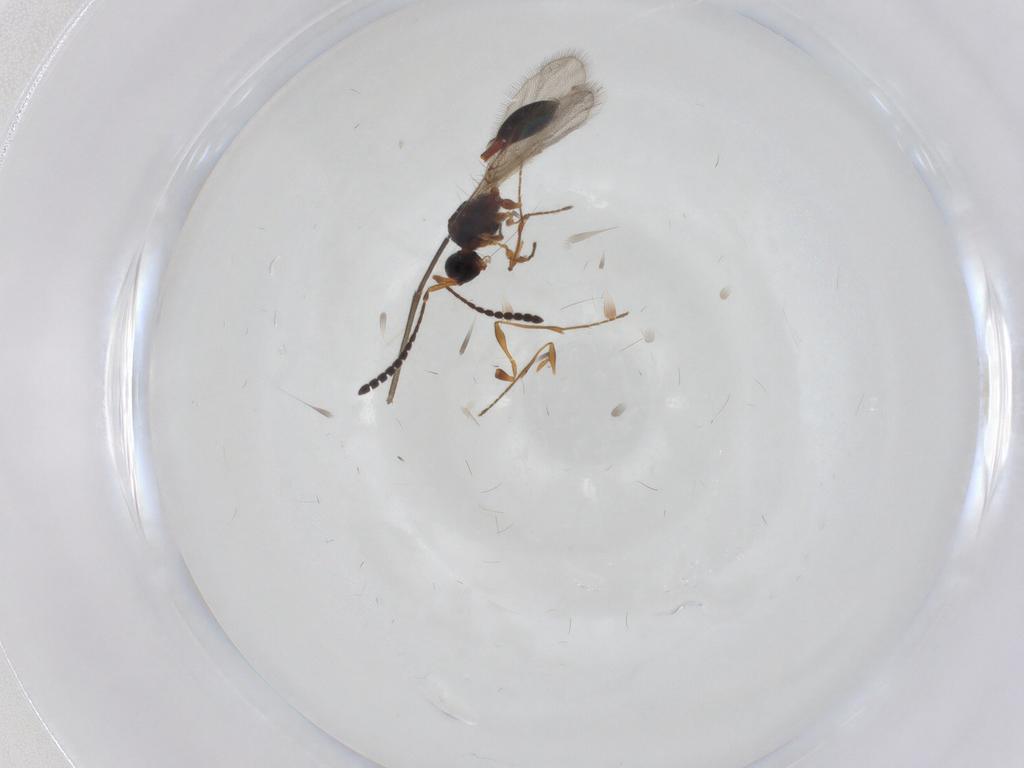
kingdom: Animalia
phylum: Arthropoda
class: Insecta
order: Hymenoptera
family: Diapriidae
